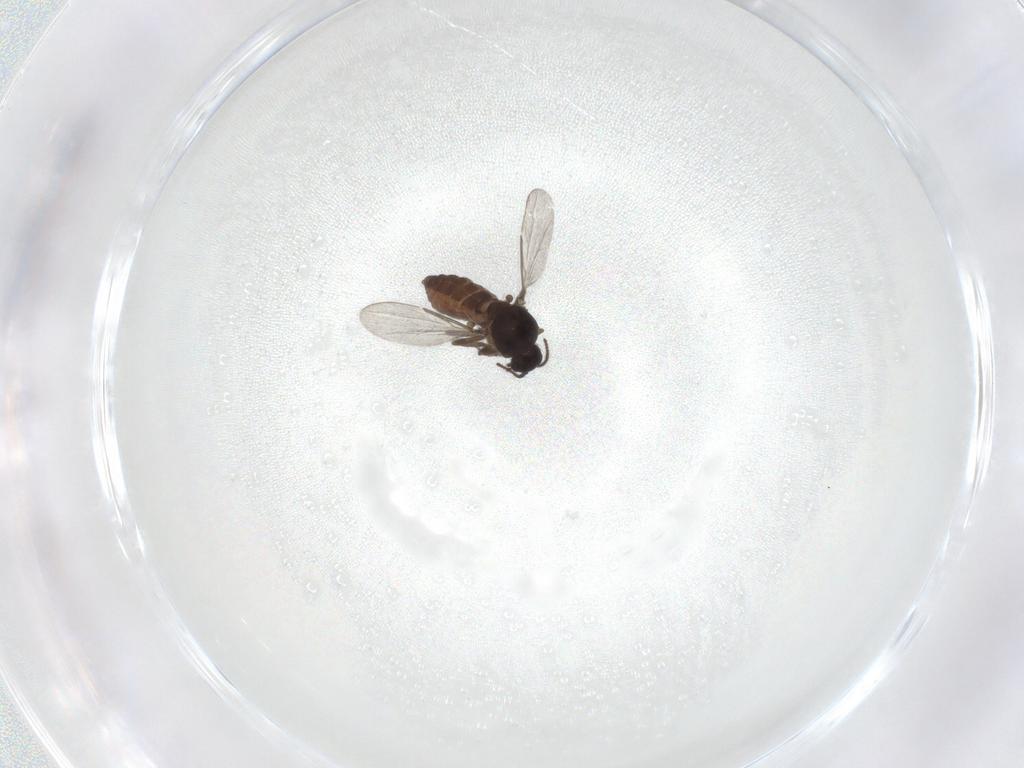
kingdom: Animalia
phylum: Arthropoda
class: Insecta
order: Diptera
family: Ceratopogonidae
